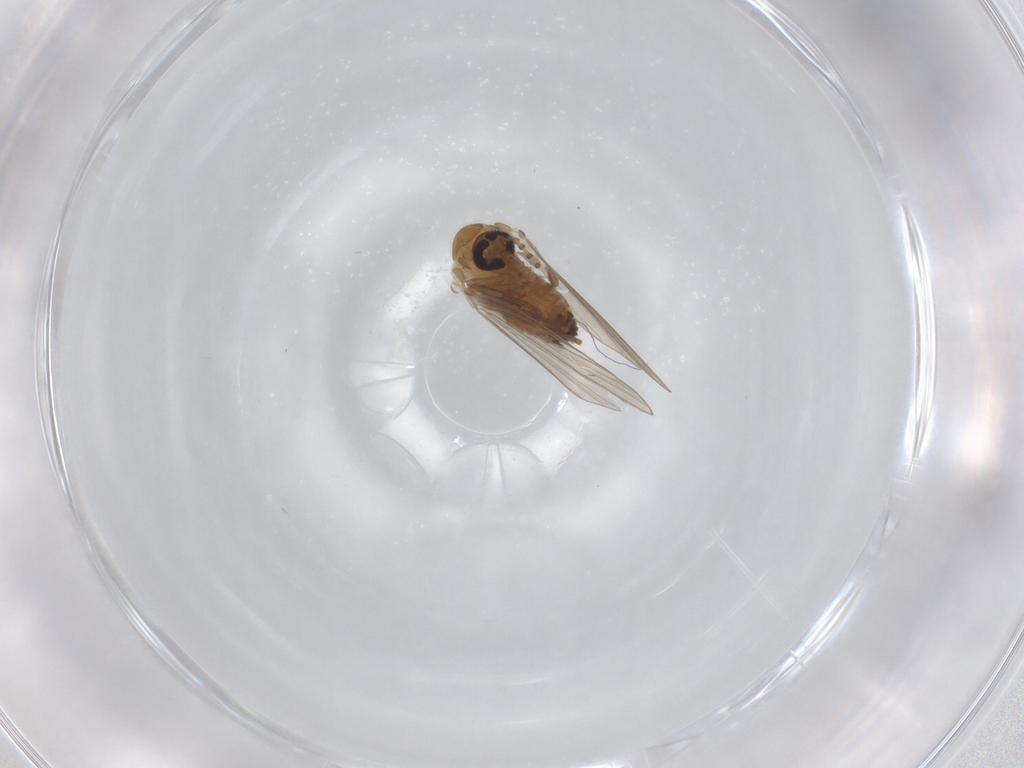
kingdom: Animalia
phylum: Arthropoda
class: Insecta
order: Diptera
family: Psychodidae
